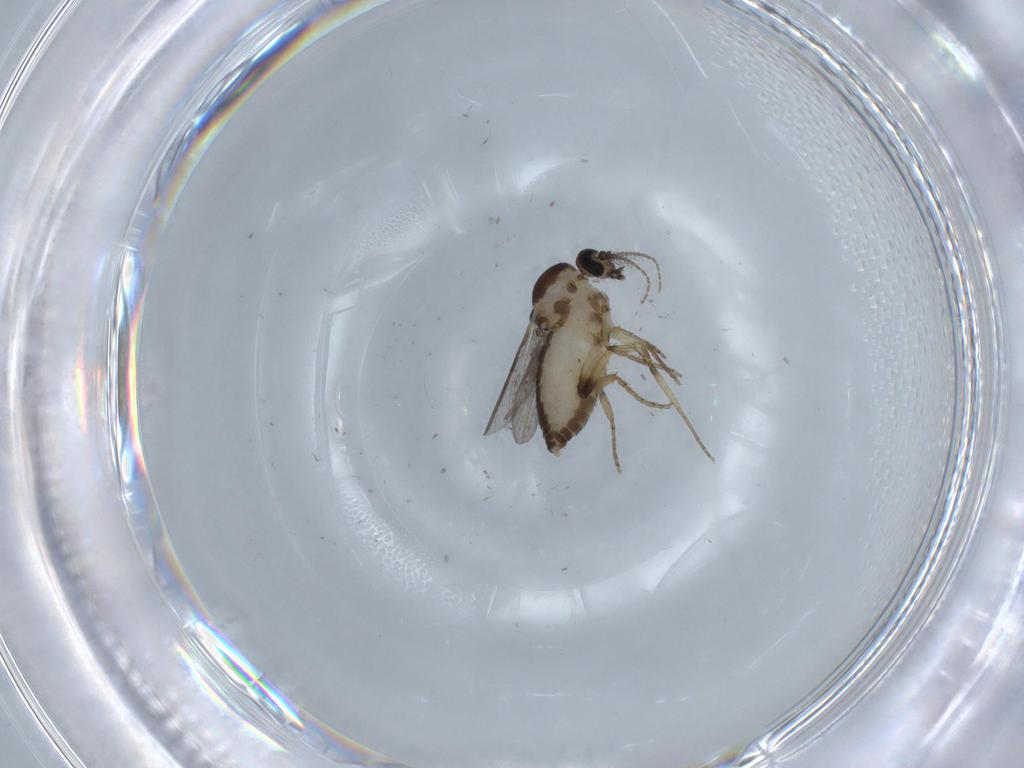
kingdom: Animalia
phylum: Arthropoda
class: Insecta
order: Diptera
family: Ceratopogonidae
